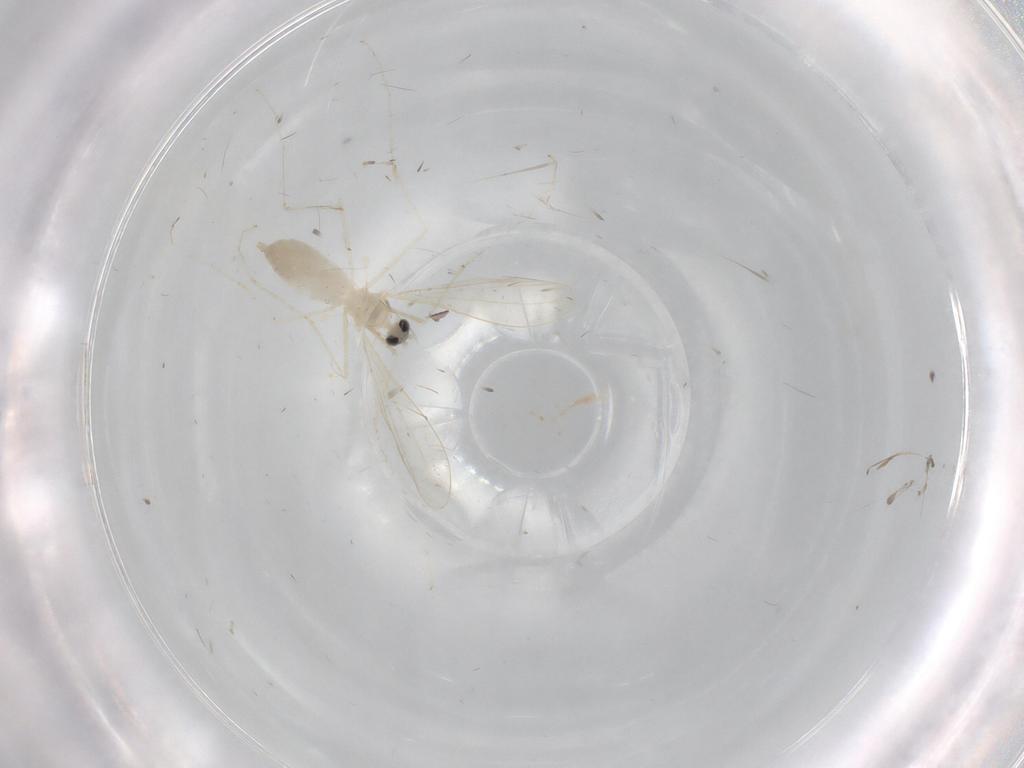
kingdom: Animalia
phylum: Arthropoda
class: Insecta
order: Diptera
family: Cecidomyiidae
